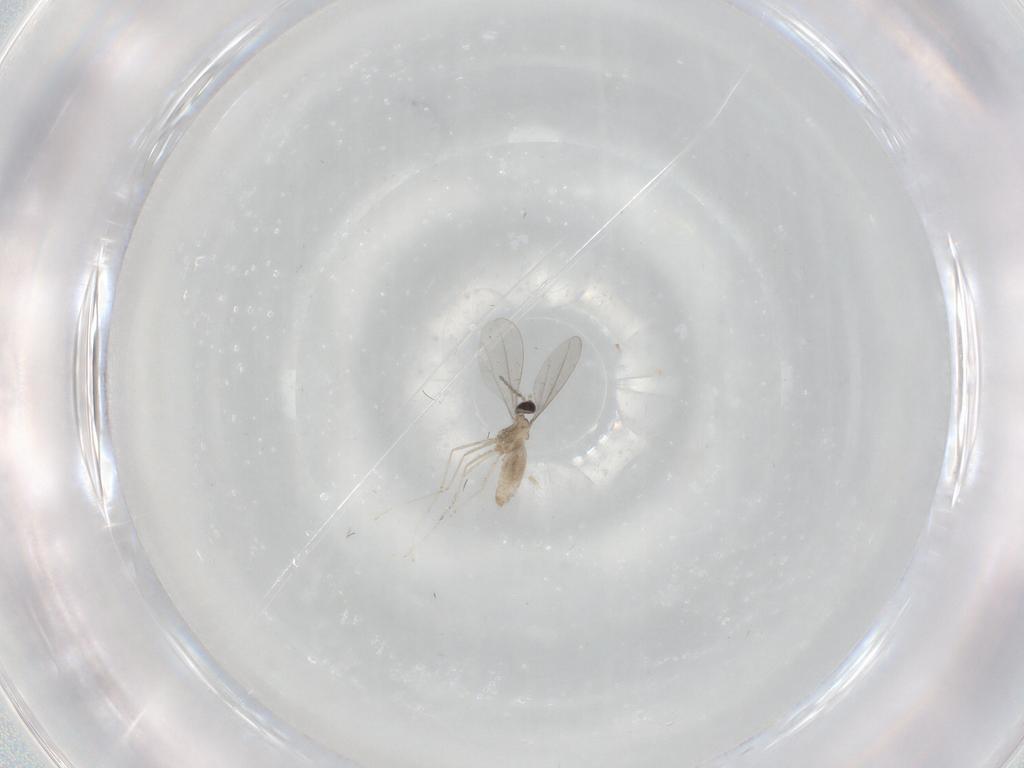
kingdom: Animalia
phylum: Arthropoda
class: Insecta
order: Diptera
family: Cecidomyiidae
